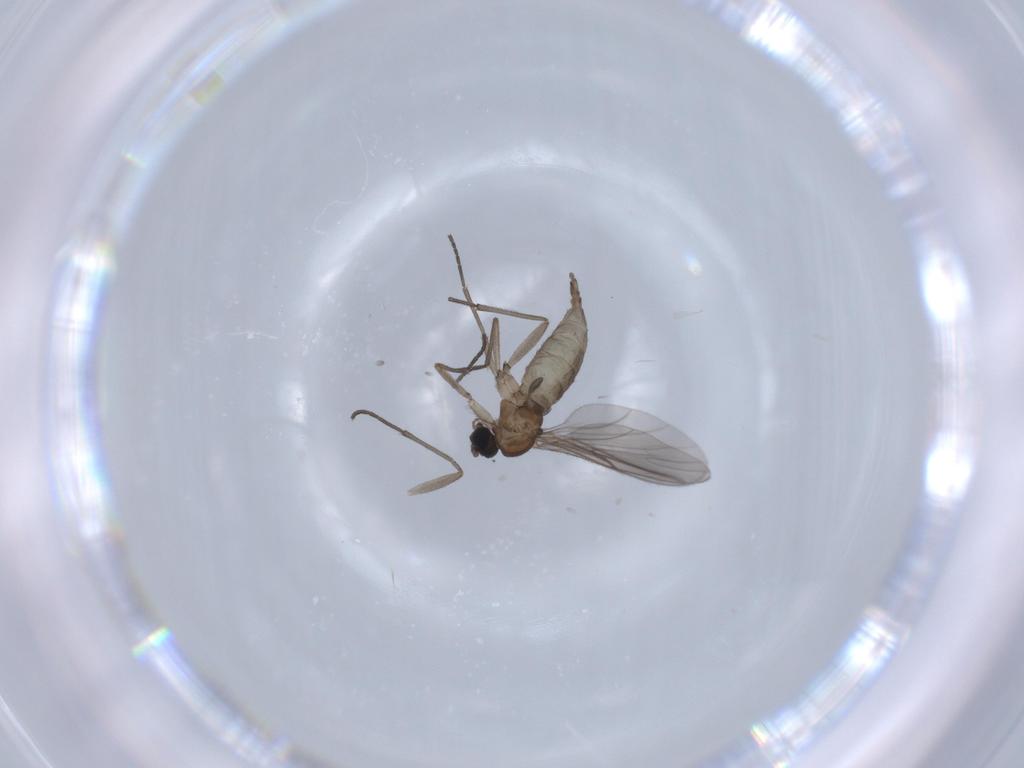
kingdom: Animalia
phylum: Arthropoda
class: Insecta
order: Diptera
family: Sciaridae
